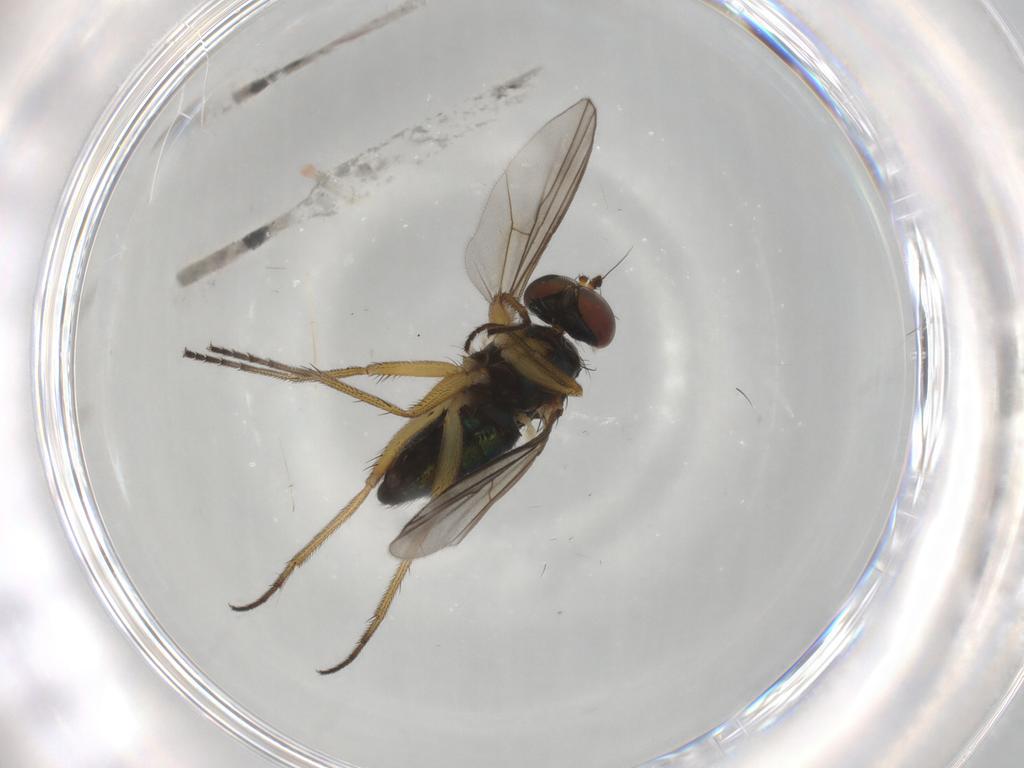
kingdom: Animalia
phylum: Arthropoda
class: Insecta
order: Diptera
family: Dolichopodidae
